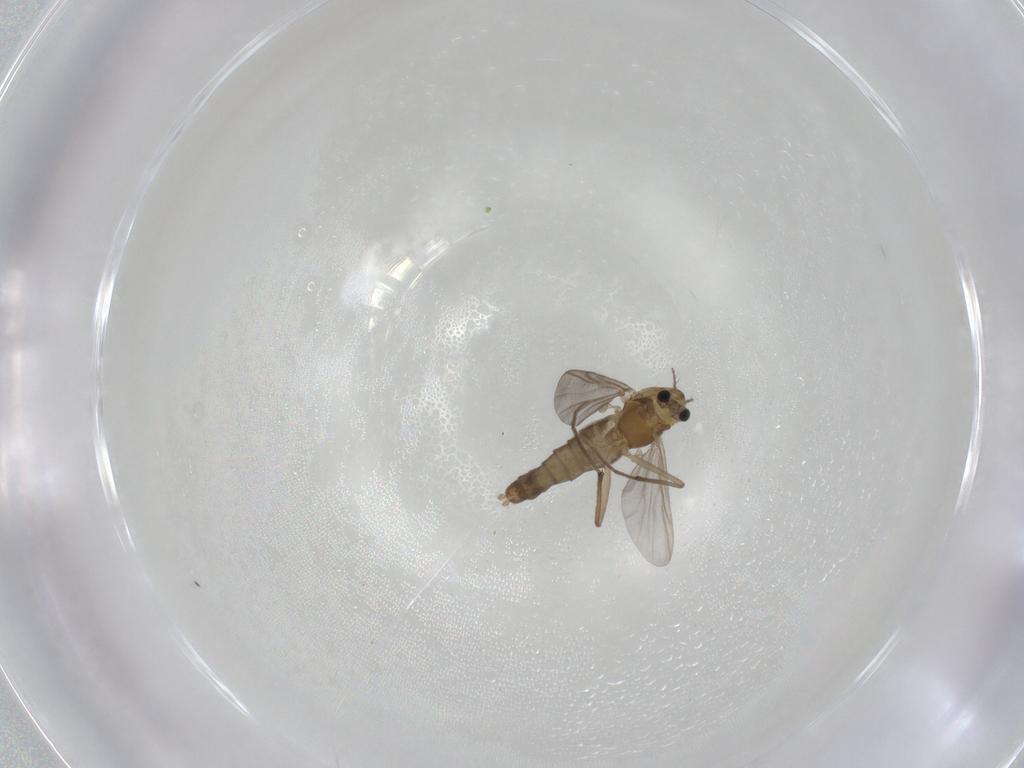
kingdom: Animalia
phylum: Arthropoda
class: Insecta
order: Diptera
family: Chironomidae
